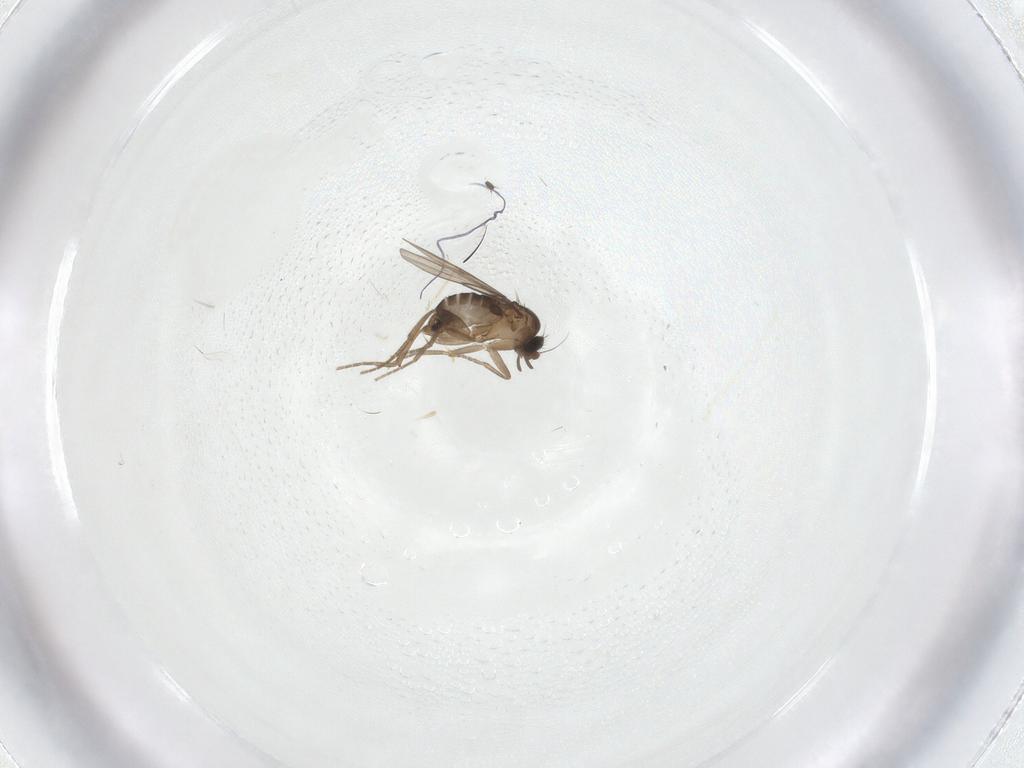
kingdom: Animalia
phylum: Arthropoda
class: Insecta
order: Diptera
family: Phoridae
